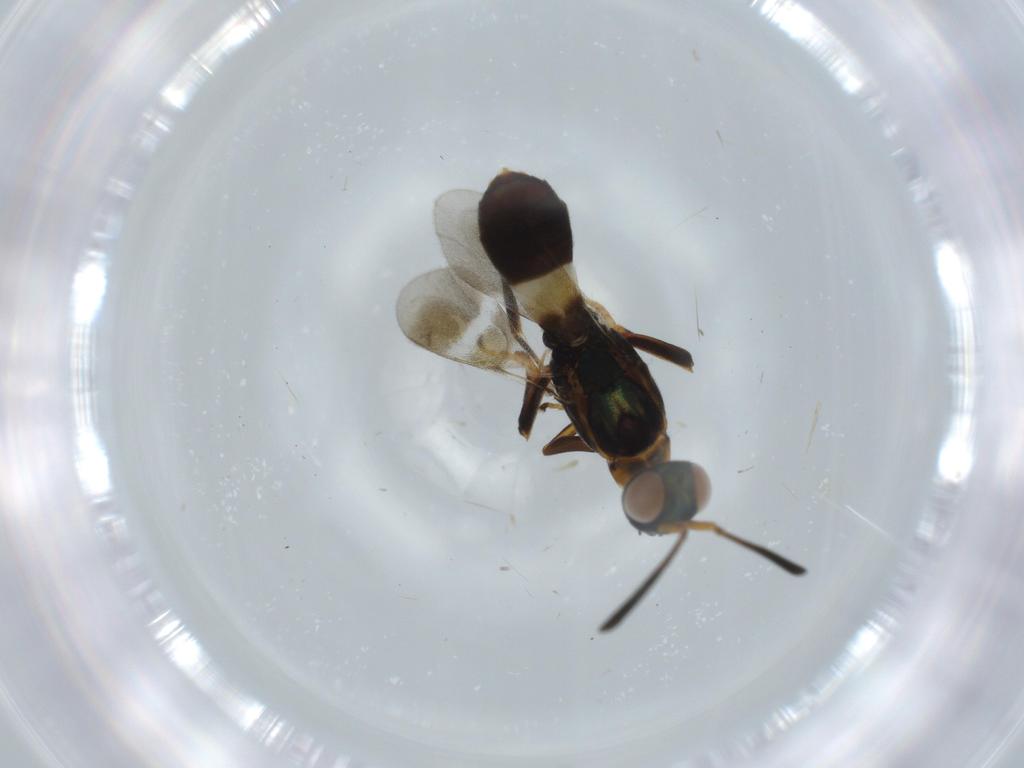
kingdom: Animalia
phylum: Arthropoda
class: Insecta
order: Hymenoptera
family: Eupelmidae
